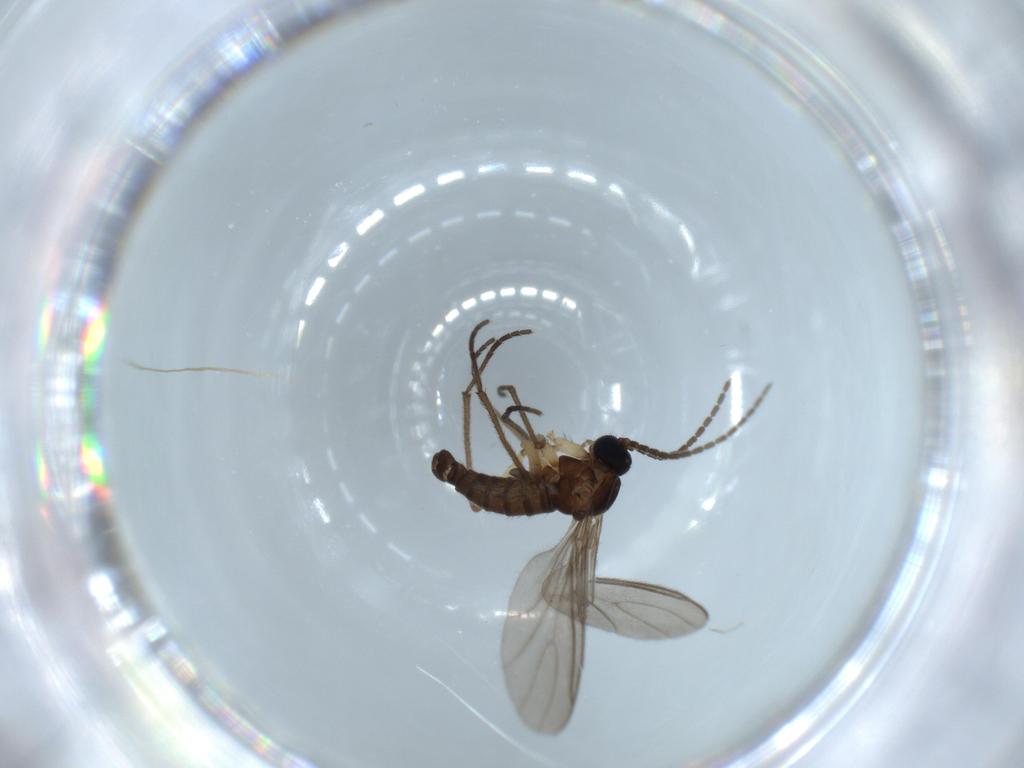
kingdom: Animalia
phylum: Arthropoda
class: Insecta
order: Diptera
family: Sciaridae
